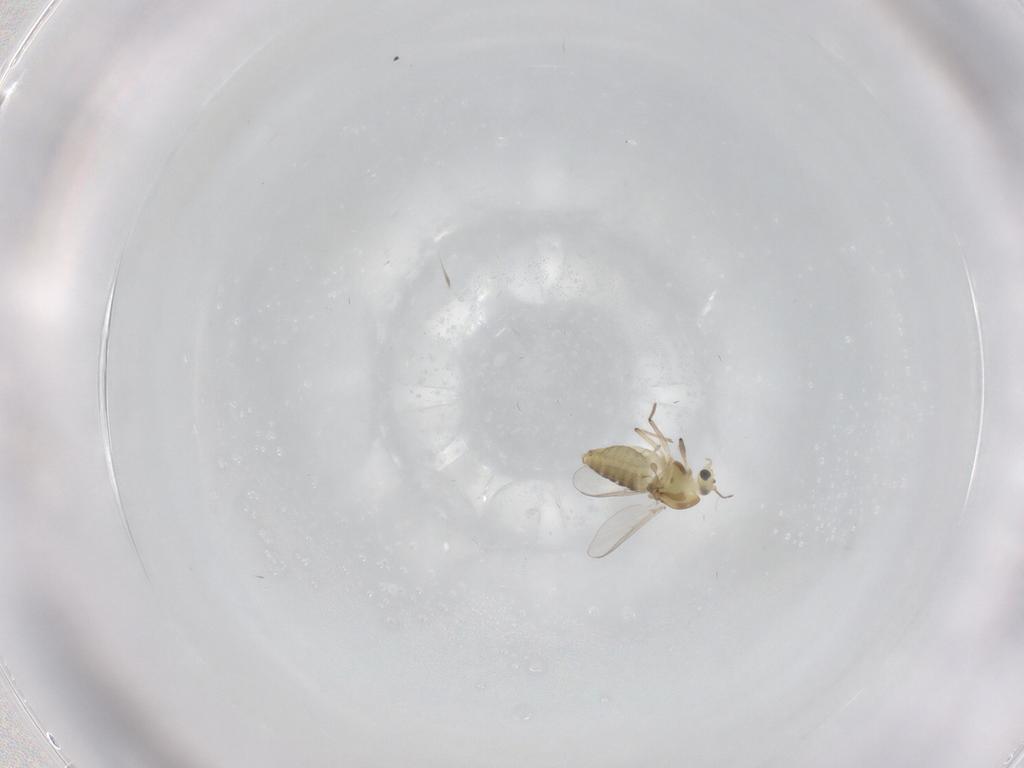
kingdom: Animalia
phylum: Arthropoda
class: Insecta
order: Diptera
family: Chironomidae
